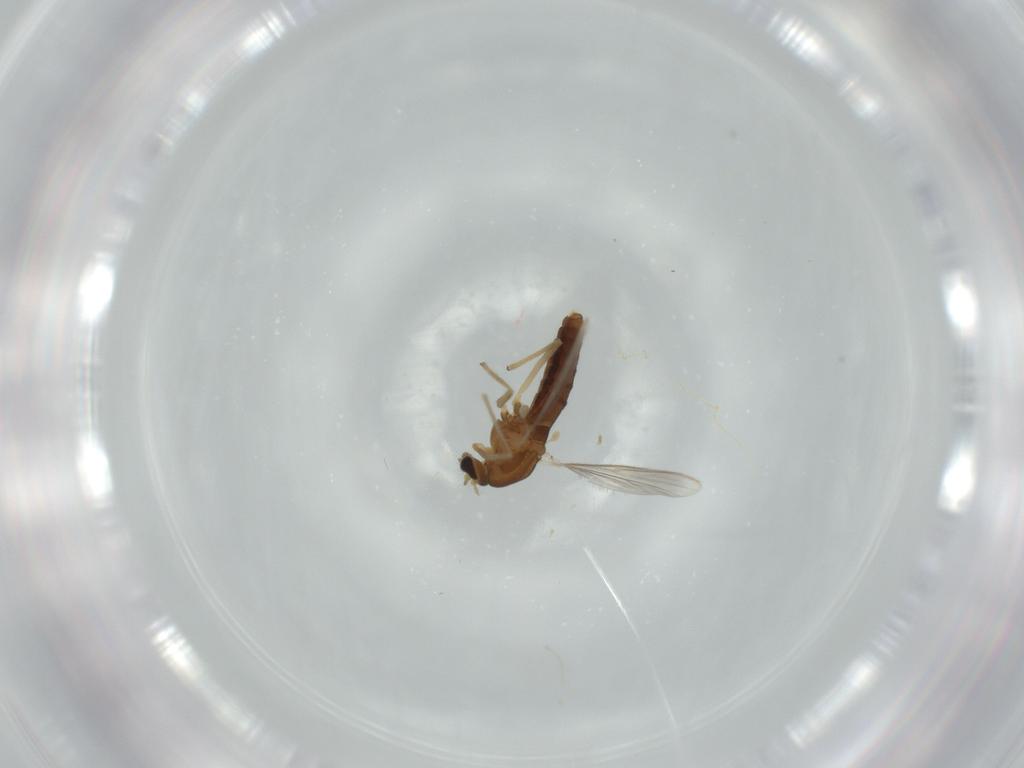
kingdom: Animalia
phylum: Arthropoda
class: Insecta
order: Diptera
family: Chironomidae
